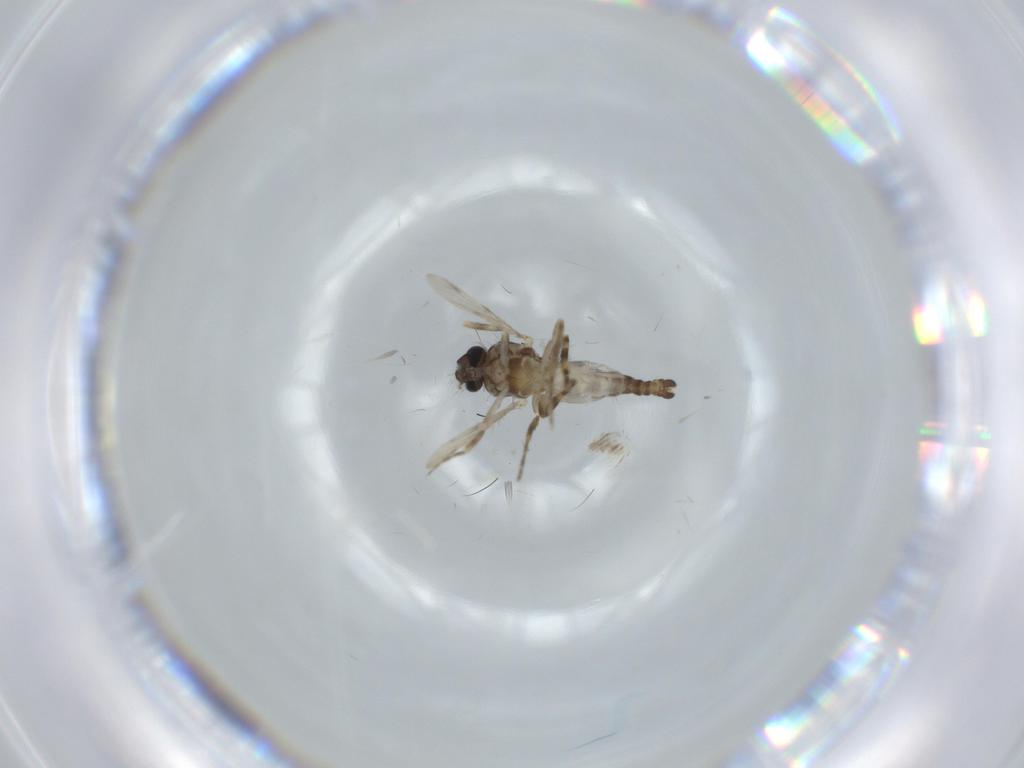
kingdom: Animalia
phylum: Arthropoda
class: Insecta
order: Diptera
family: Ceratopogonidae
